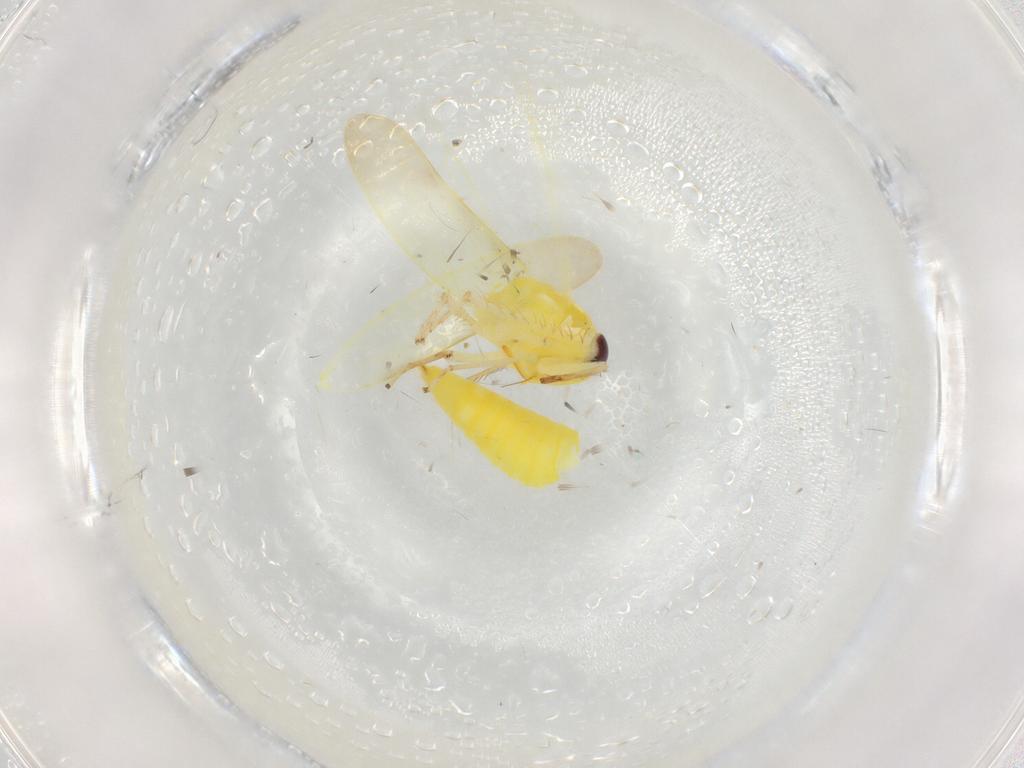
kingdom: Animalia
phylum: Arthropoda
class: Insecta
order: Hemiptera
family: Cicadellidae
